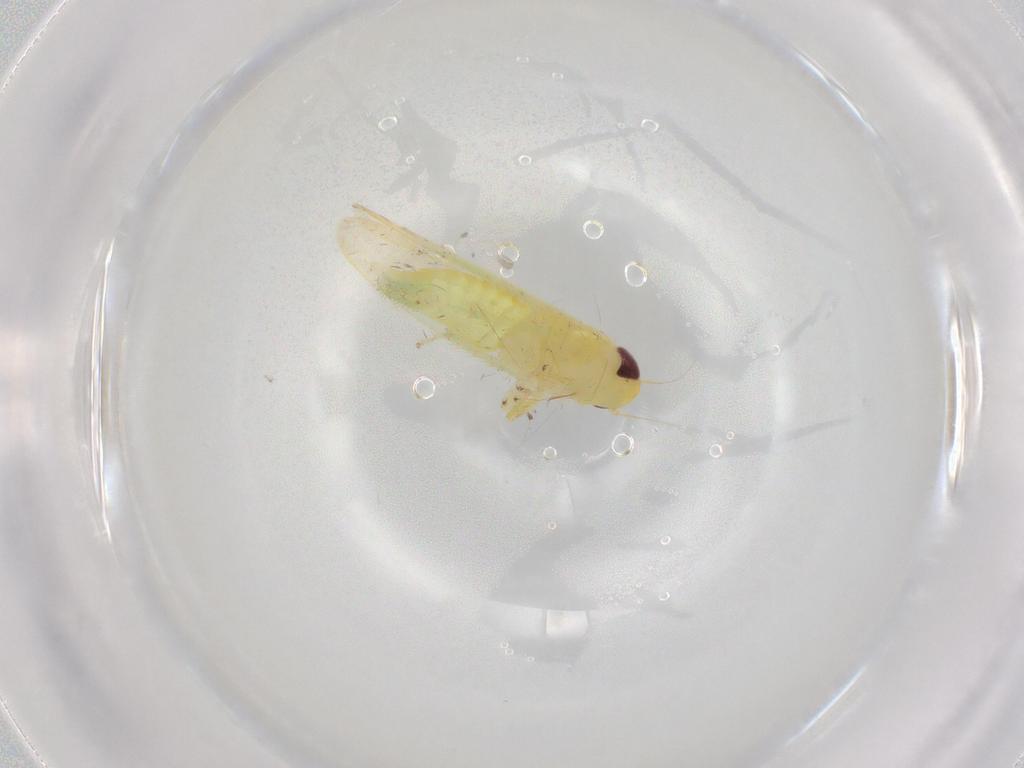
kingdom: Animalia
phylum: Arthropoda
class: Insecta
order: Hemiptera
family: Cicadellidae
